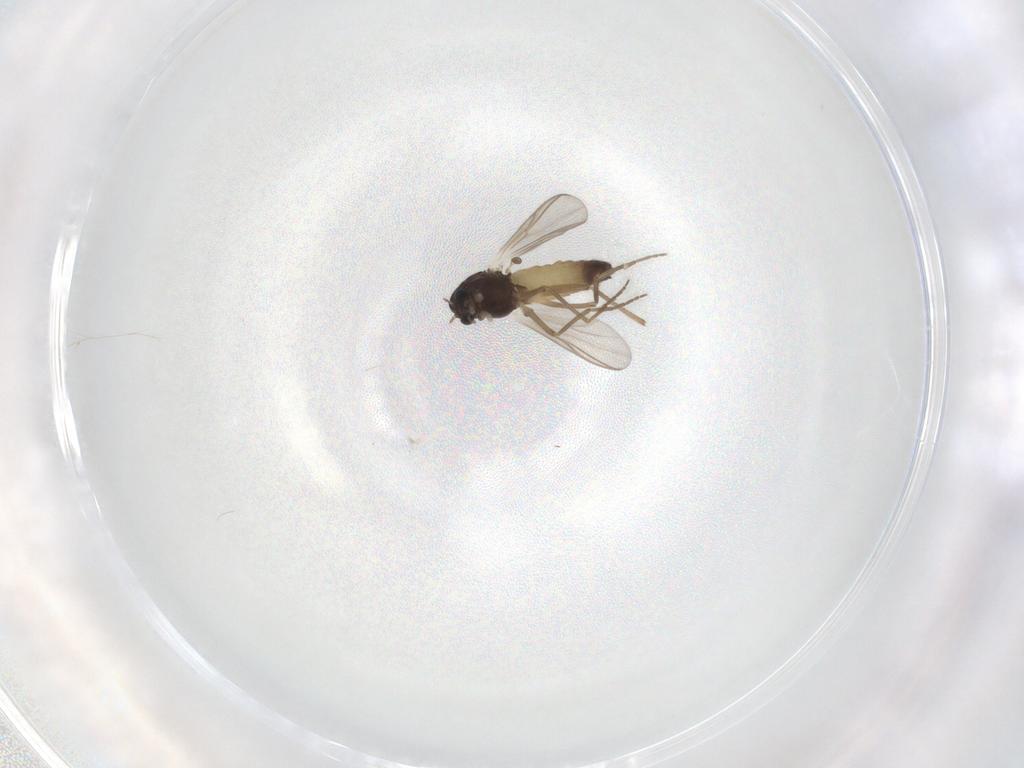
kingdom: Animalia
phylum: Arthropoda
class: Insecta
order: Diptera
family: Chironomidae
